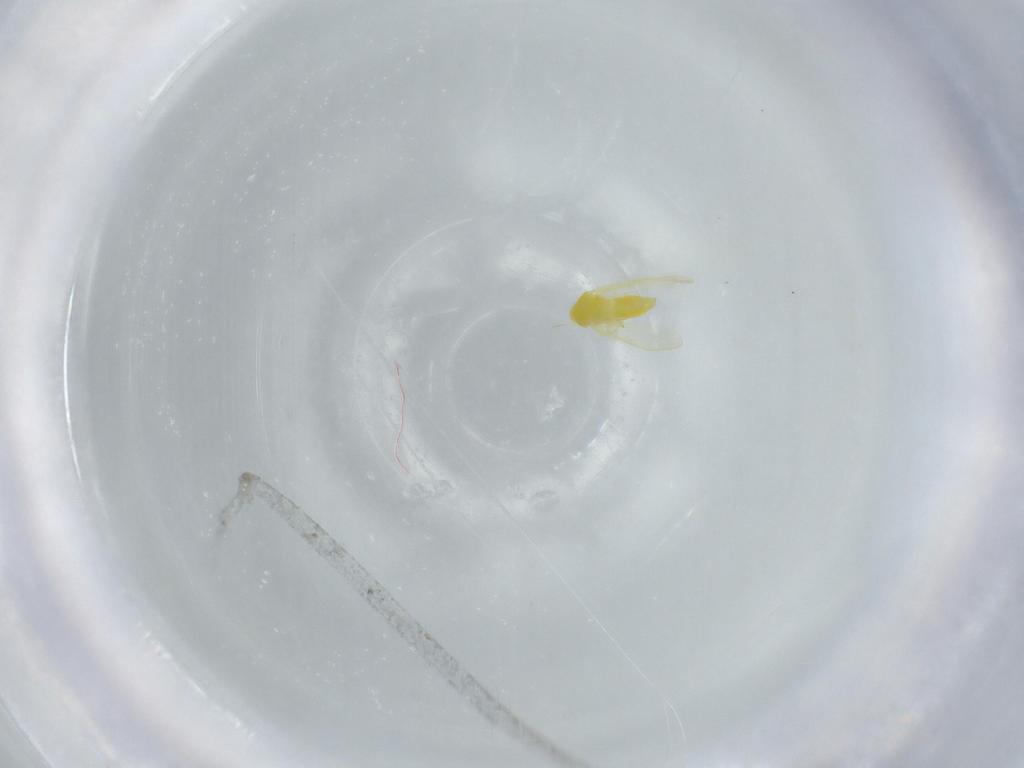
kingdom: Animalia
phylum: Arthropoda
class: Insecta
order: Hemiptera
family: Aleyrodidae
